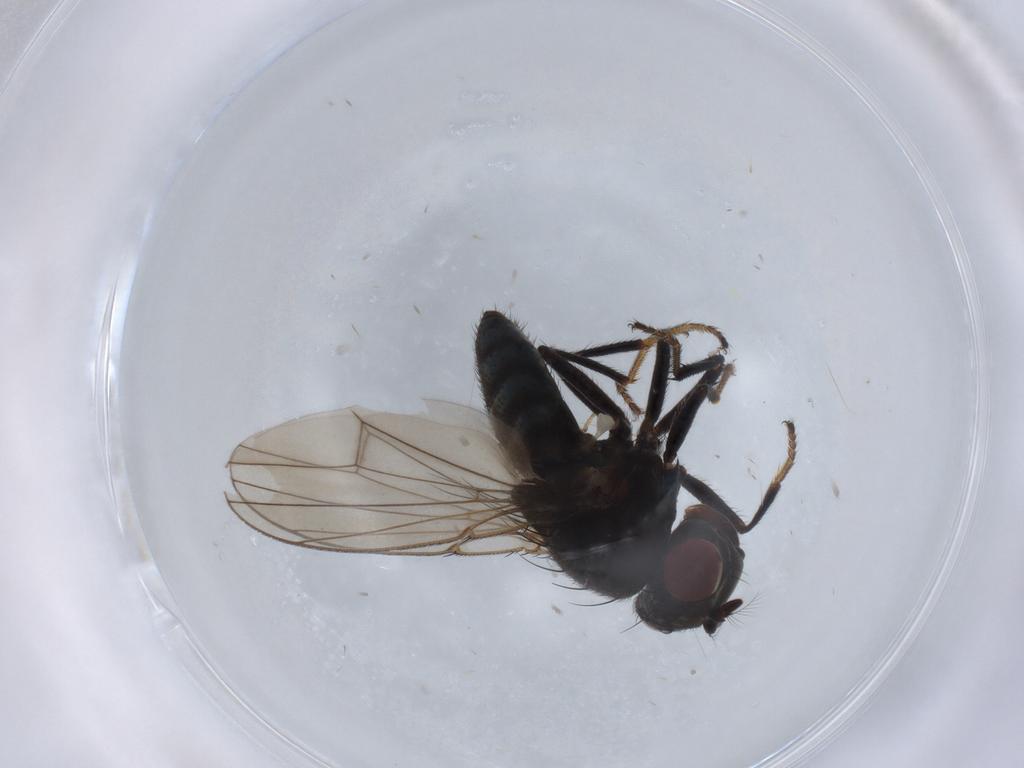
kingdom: Animalia
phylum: Arthropoda
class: Insecta
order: Diptera
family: Ephydridae
